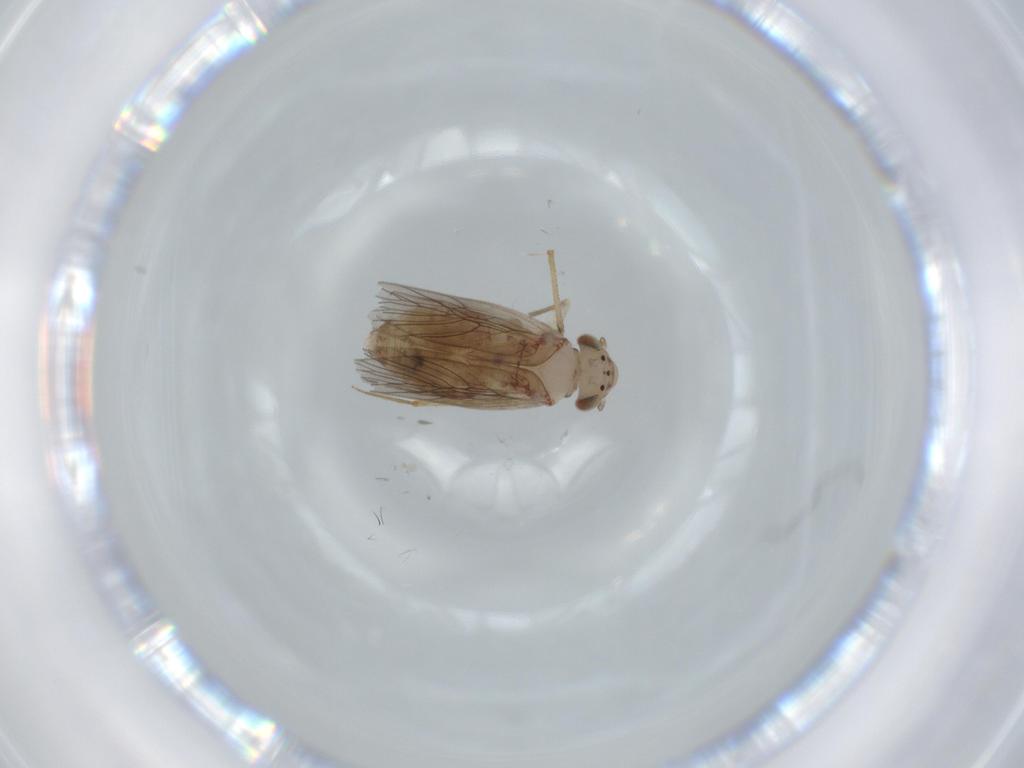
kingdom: Animalia
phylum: Arthropoda
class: Insecta
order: Psocodea
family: Lepidopsocidae
